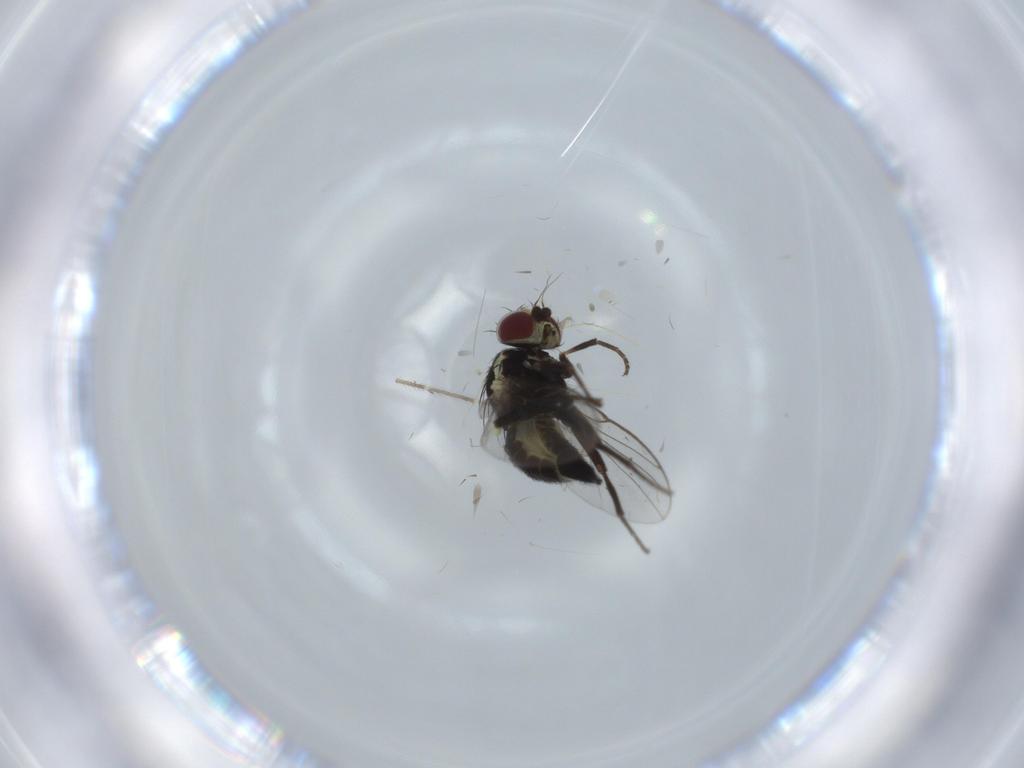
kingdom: Animalia
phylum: Arthropoda
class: Insecta
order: Diptera
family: Agromyzidae
